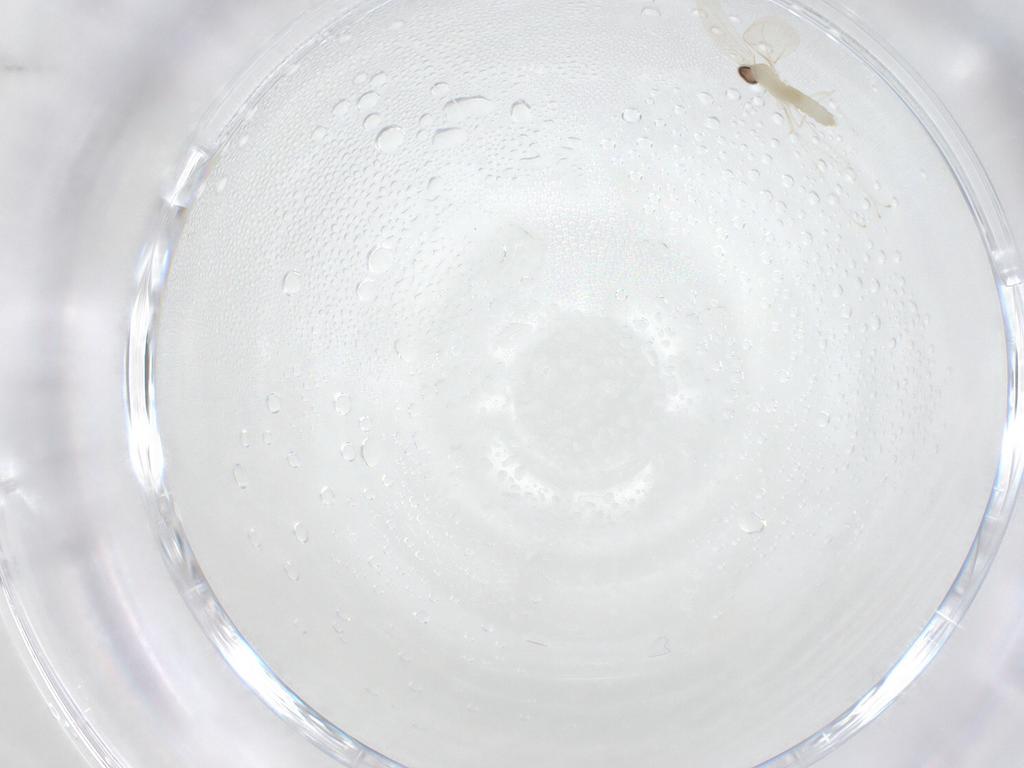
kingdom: Animalia
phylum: Arthropoda
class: Insecta
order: Diptera
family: Cecidomyiidae
